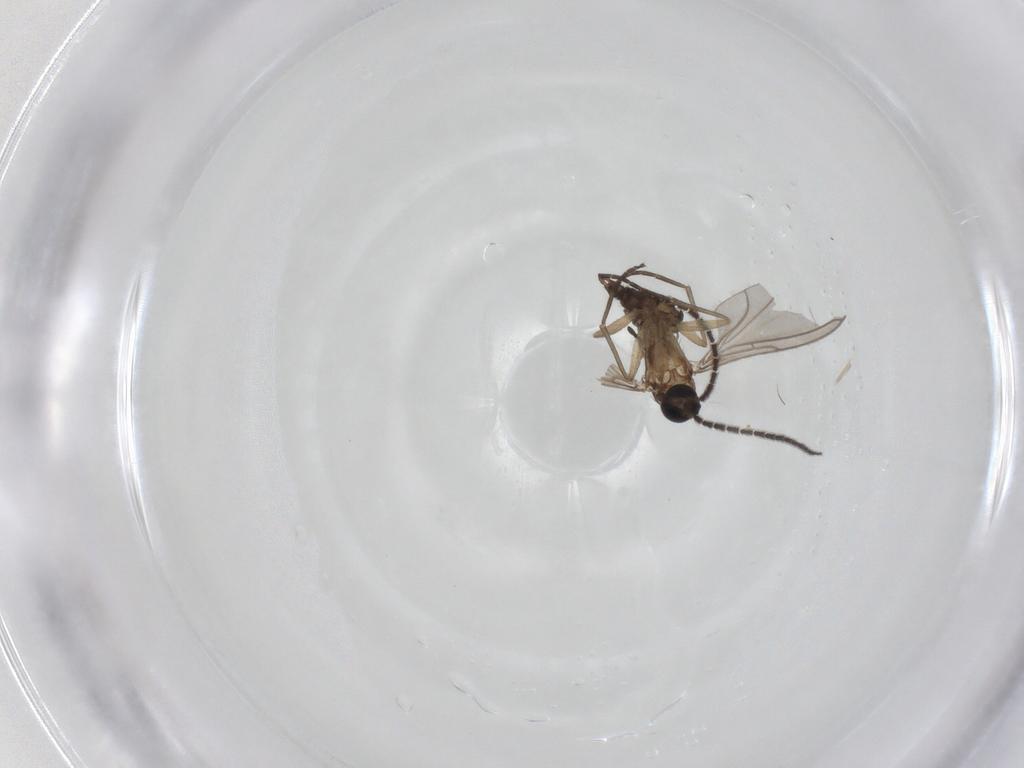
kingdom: Animalia
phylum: Arthropoda
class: Insecta
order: Diptera
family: Sciaridae
